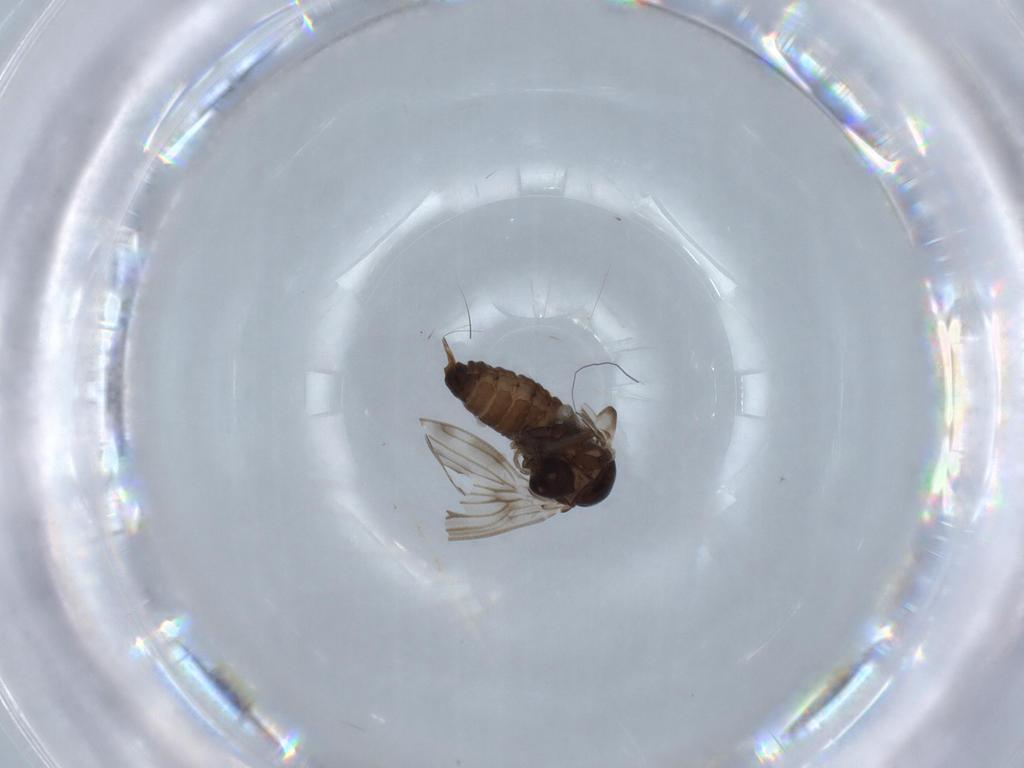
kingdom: Animalia
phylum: Arthropoda
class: Insecta
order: Diptera
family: Psychodidae
